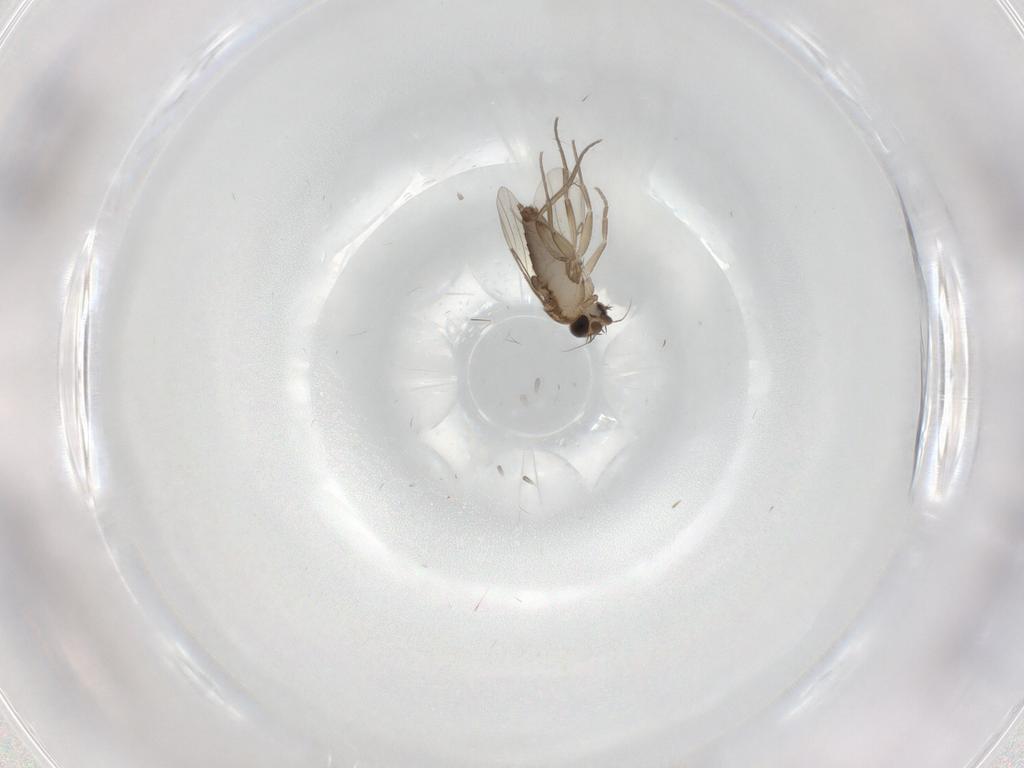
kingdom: Animalia
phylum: Arthropoda
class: Insecta
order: Diptera
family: Phoridae
